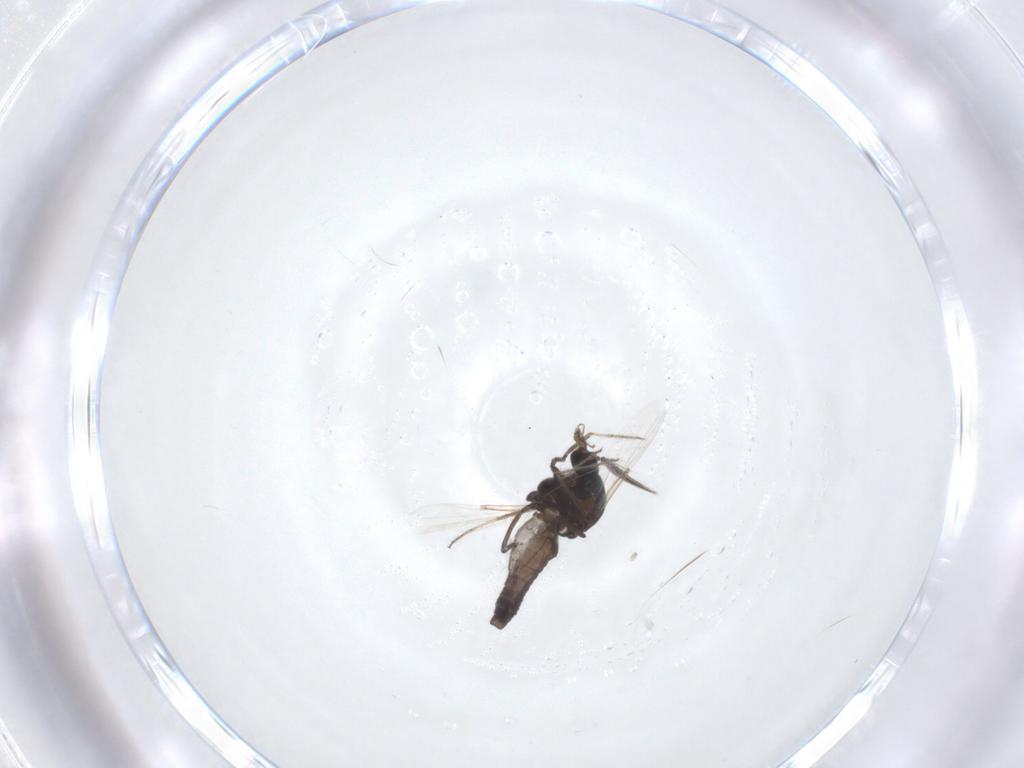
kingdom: Animalia
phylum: Arthropoda
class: Insecta
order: Diptera
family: Ceratopogonidae
